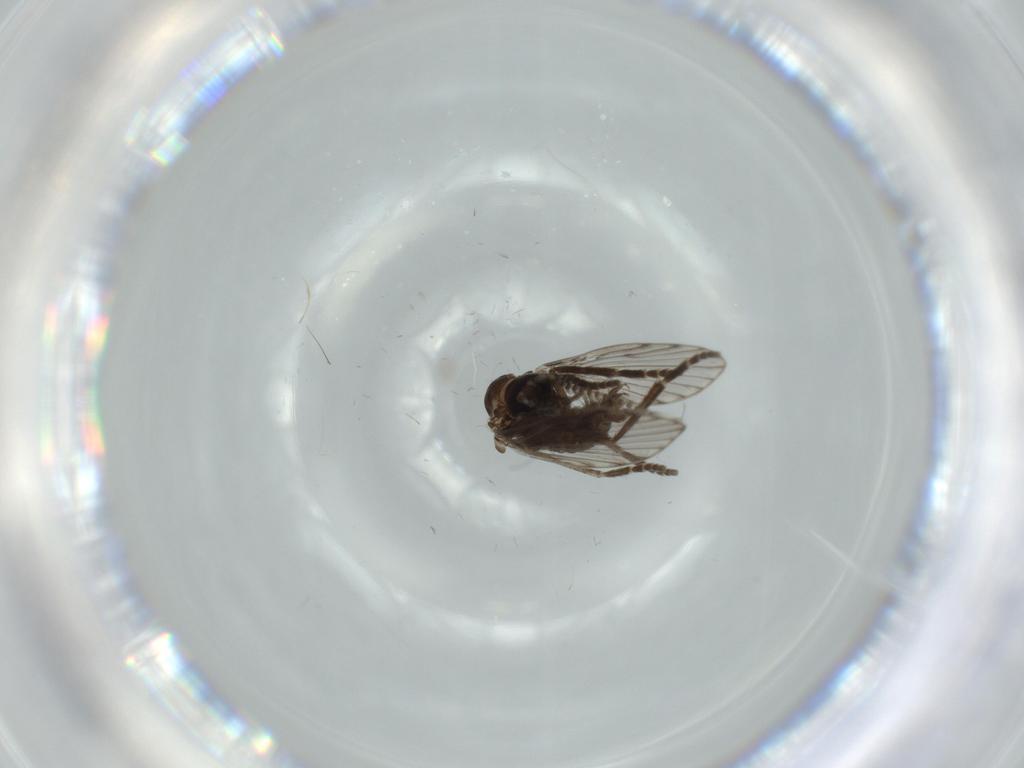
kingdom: Animalia
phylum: Arthropoda
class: Insecta
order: Diptera
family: Psychodidae
